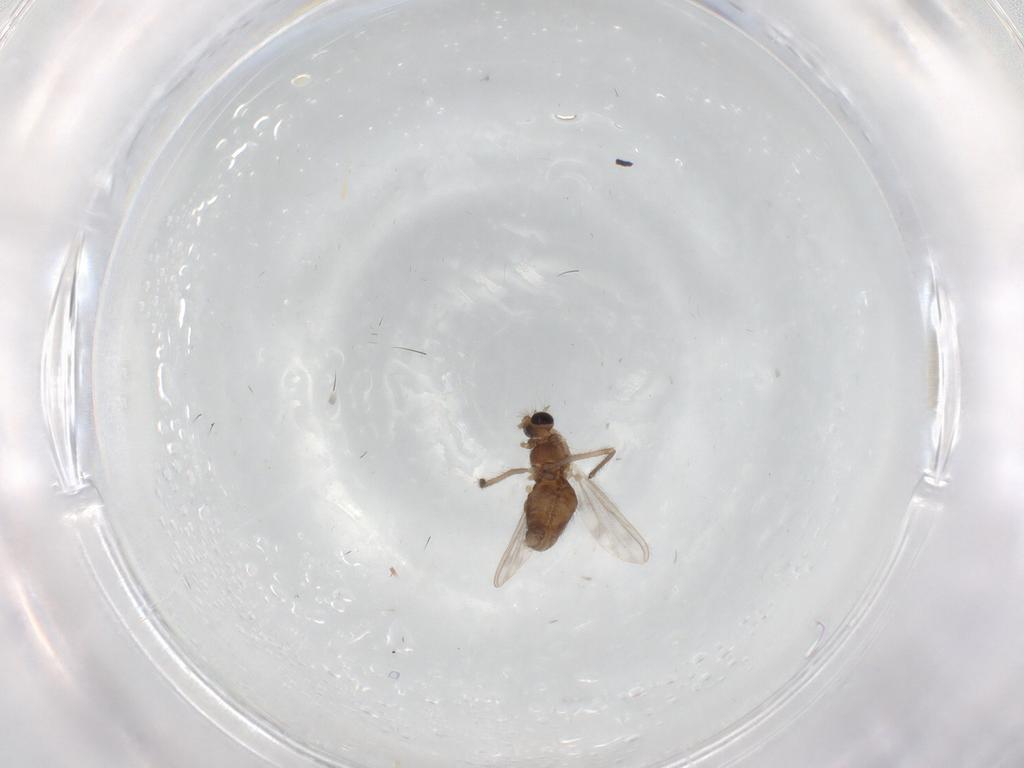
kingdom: Animalia
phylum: Arthropoda
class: Insecta
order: Diptera
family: Chironomidae
